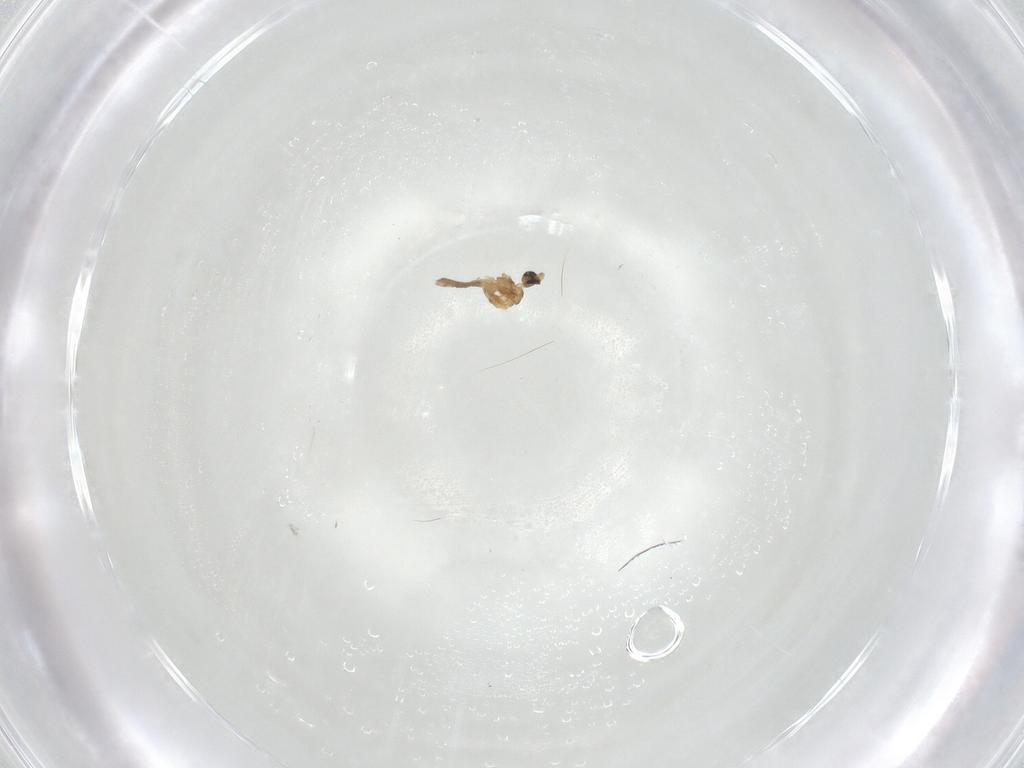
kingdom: Animalia
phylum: Arthropoda
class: Insecta
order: Diptera
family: Cecidomyiidae
